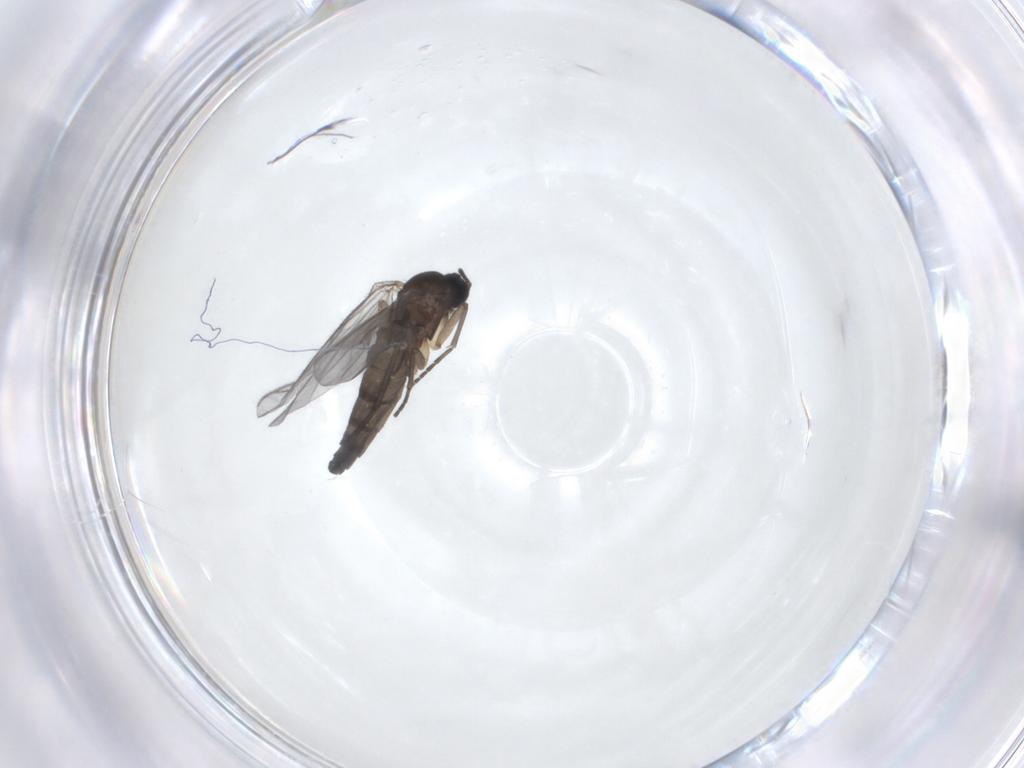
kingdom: Animalia
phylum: Arthropoda
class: Insecta
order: Diptera
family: Sciaridae
